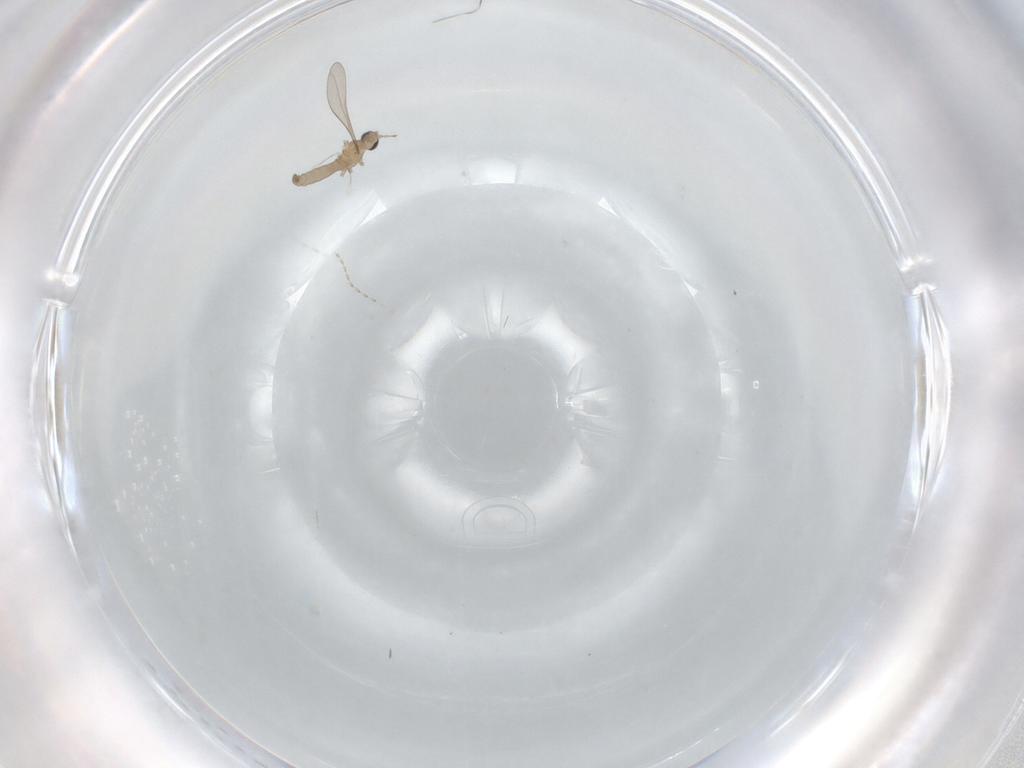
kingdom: Animalia
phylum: Arthropoda
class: Insecta
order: Diptera
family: Cecidomyiidae
